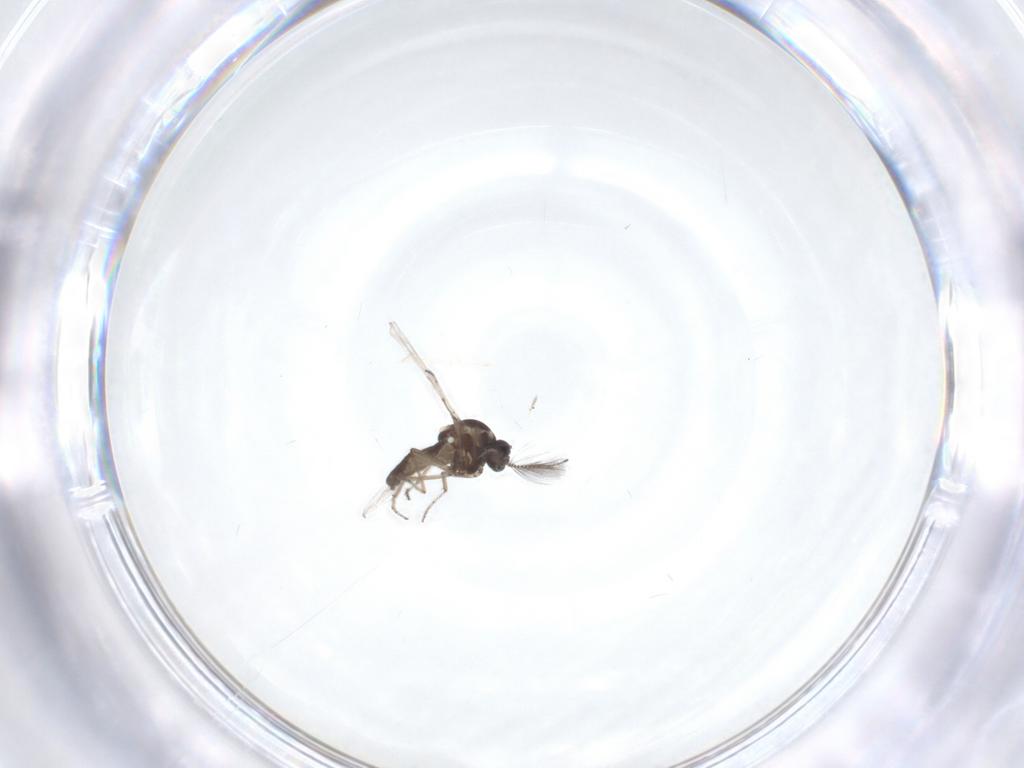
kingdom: Animalia
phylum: Arthropoda
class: Insecta
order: Diptera
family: Ceratopogonidae
